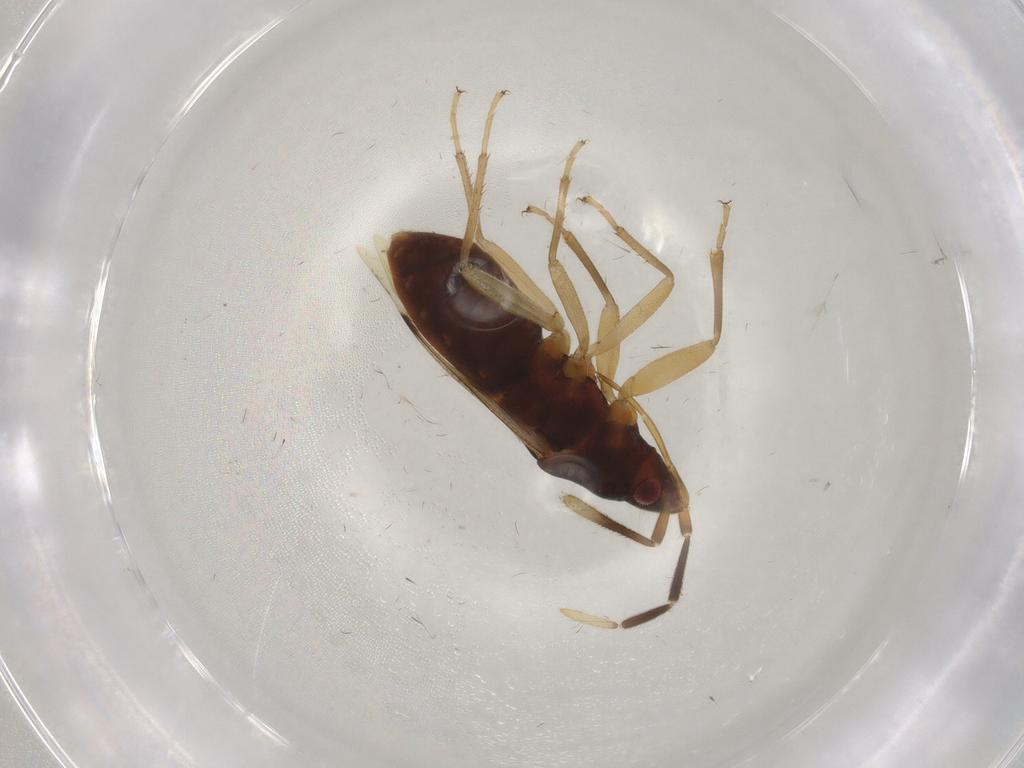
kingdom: Animalia
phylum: Arthropoda
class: Insecta
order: Hemiptera
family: Rhyparochromidae
